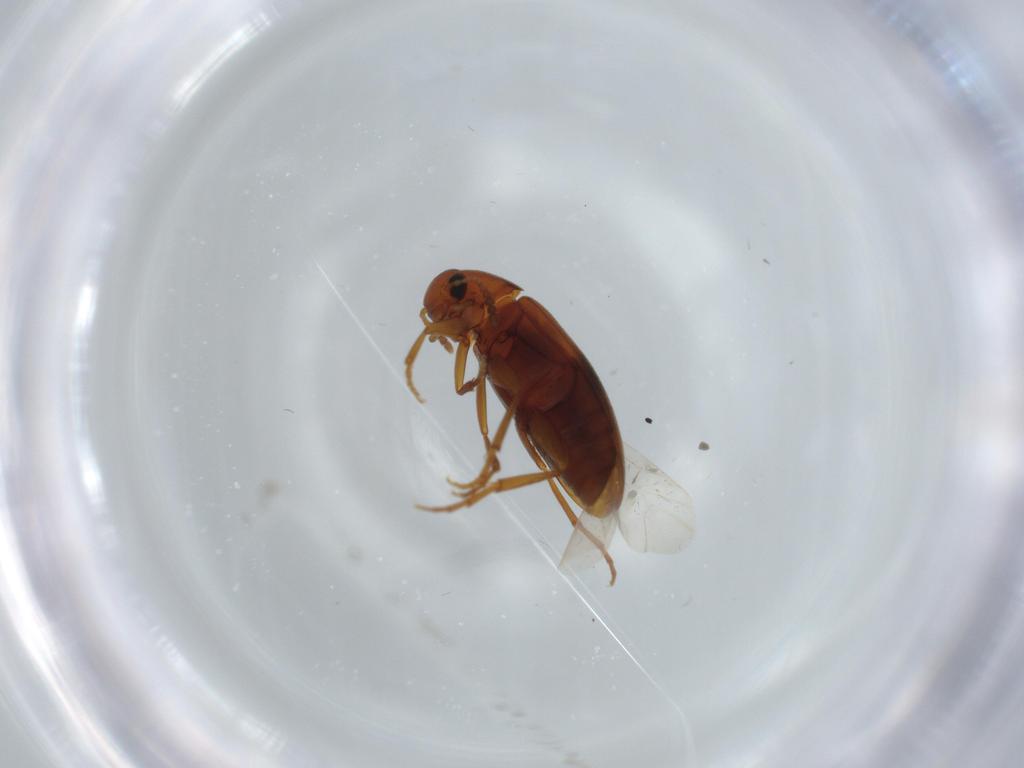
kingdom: Animalia
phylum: Arthropoda
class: Insecta
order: Coleoptera
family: Scraptiidae
